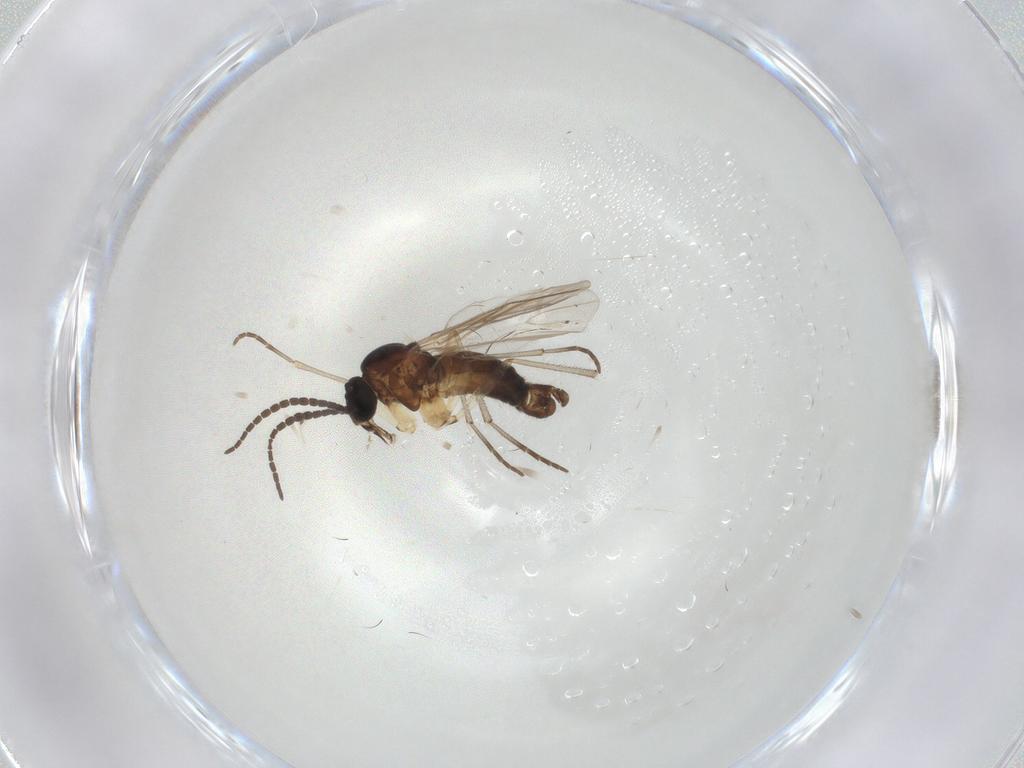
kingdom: Animalia
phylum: Arthropoda
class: Insecta
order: Diptera
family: Sciaridae
